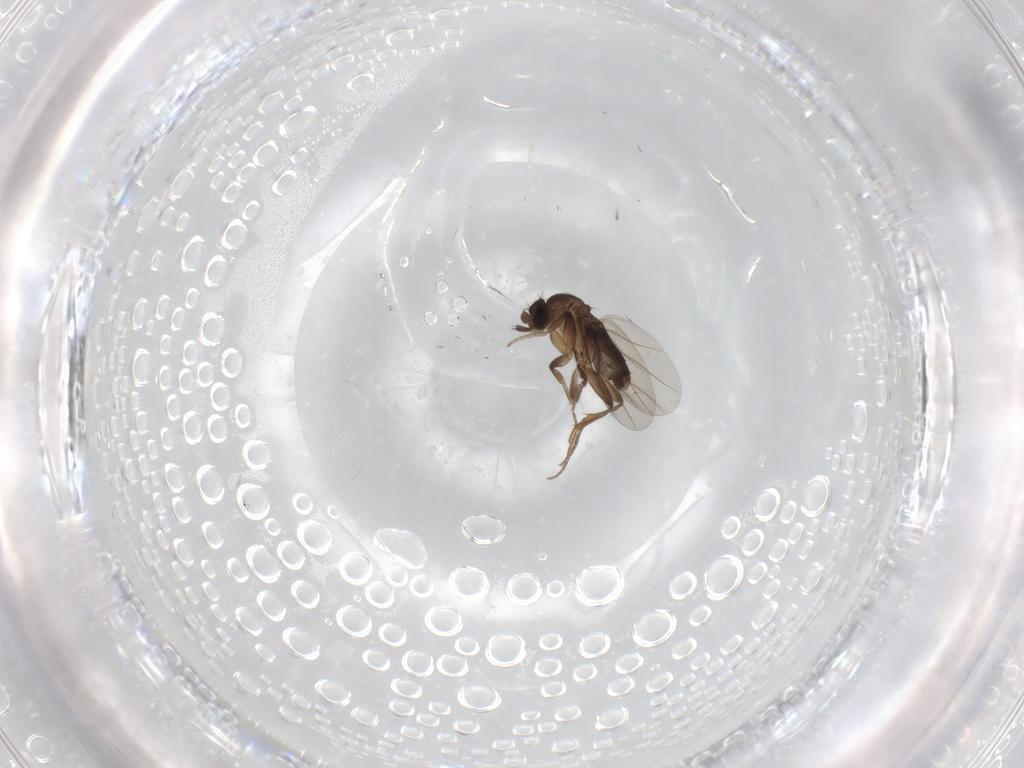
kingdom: Animalia
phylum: Arthropoda
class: Insecta
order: Diptera
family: Phoridae
